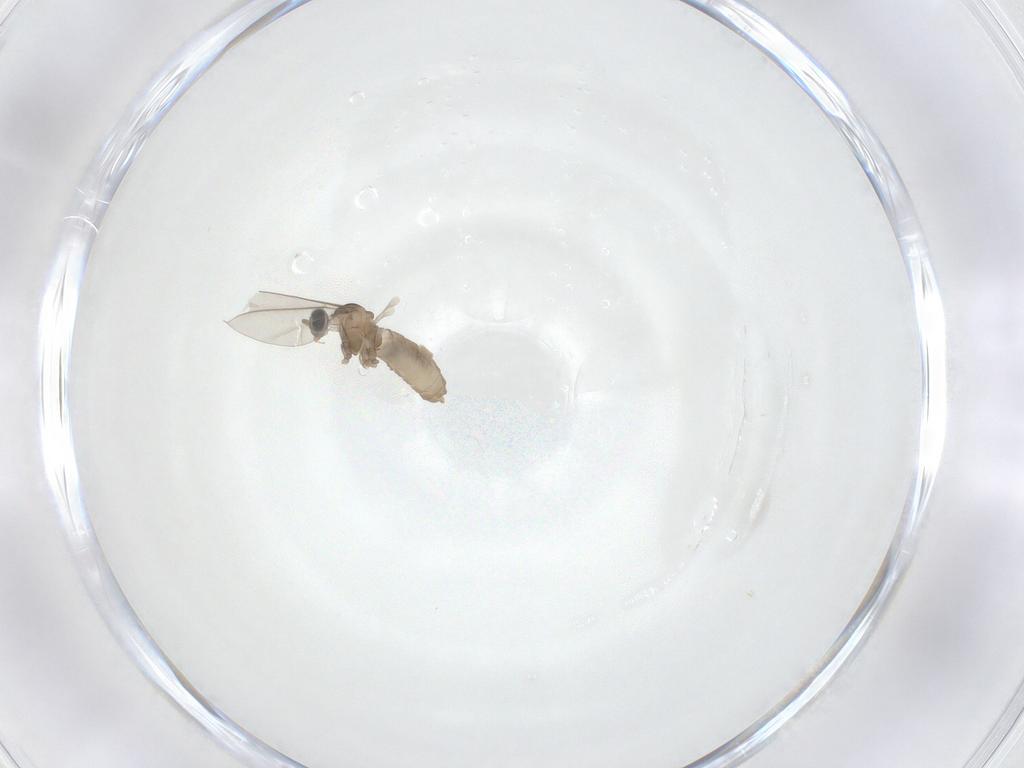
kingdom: Animalia
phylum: Arthropoda
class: Insecta
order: Diptera
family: Cecidomyiidae
